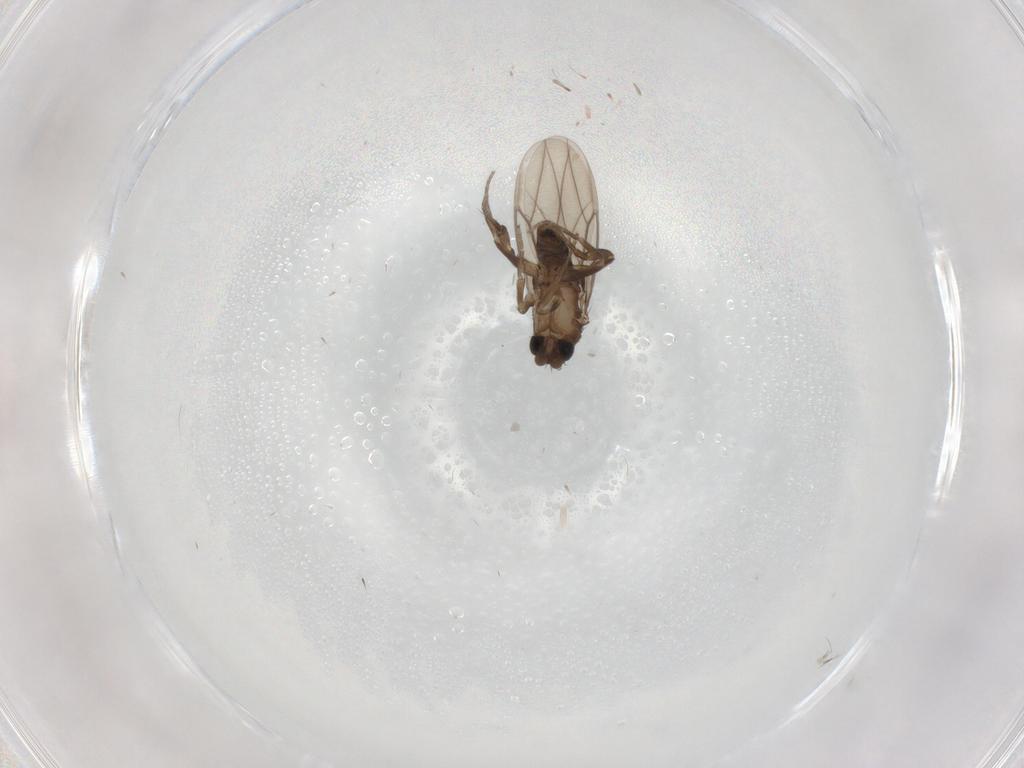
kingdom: Animalia
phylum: Arthropoda
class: Insecta
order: Diptera
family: Phoridae
